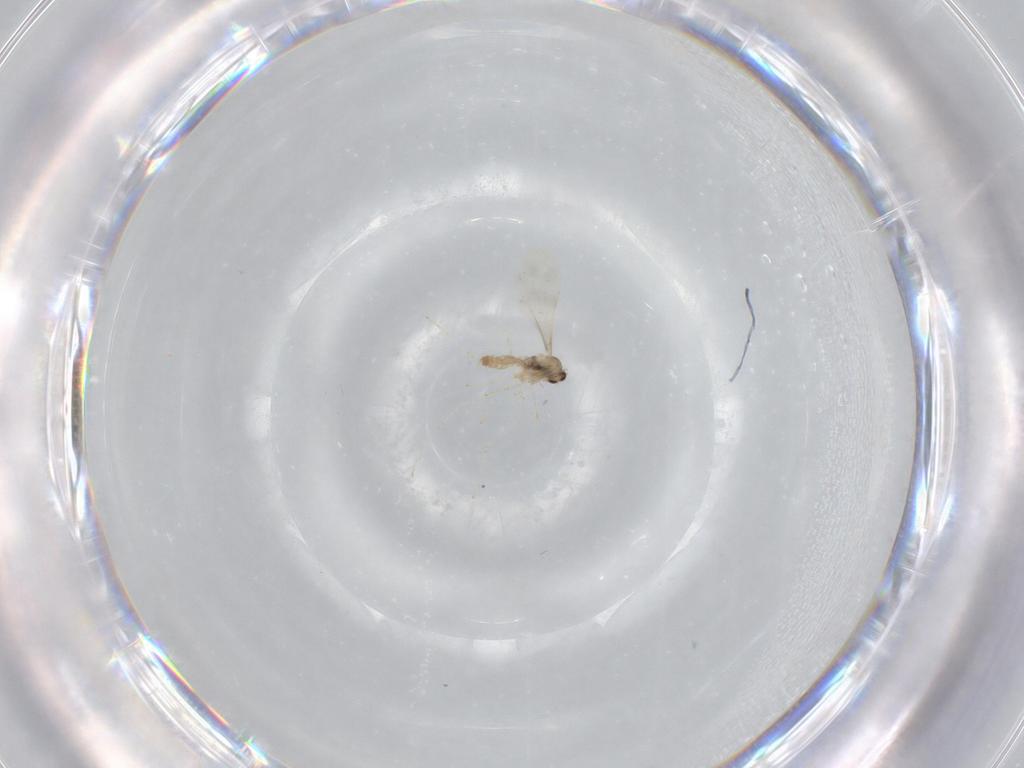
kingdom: Animalia
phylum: Arthropoda
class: Insecta
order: Diptera
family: Cecidomyiidae
